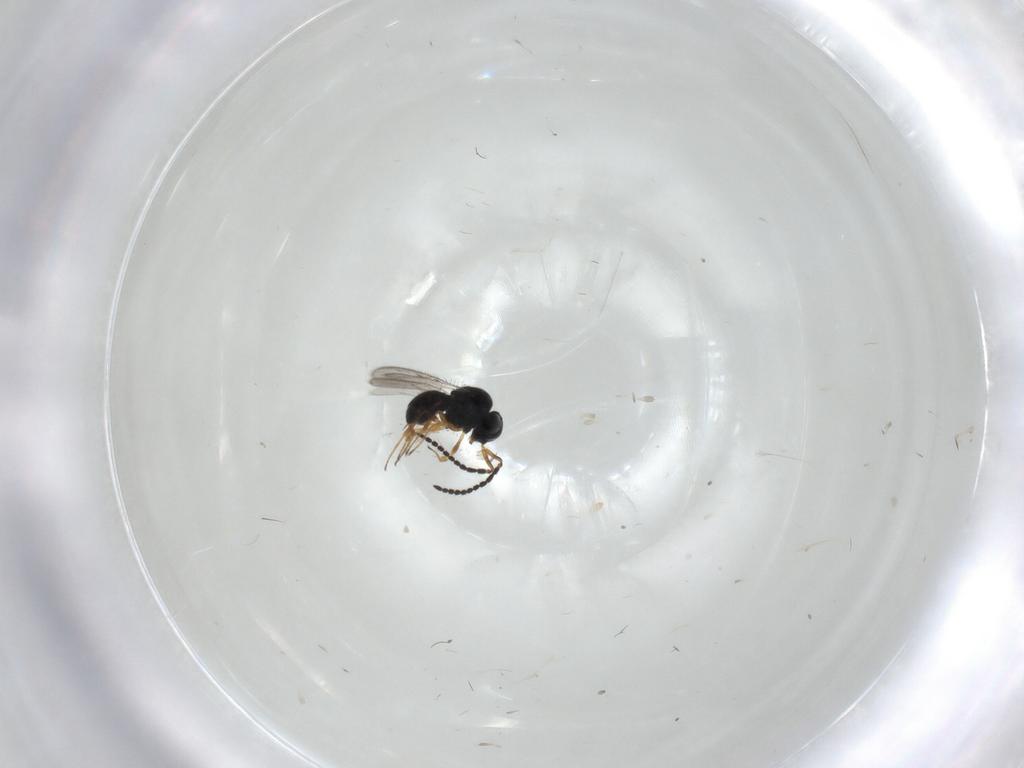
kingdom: Animalia
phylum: Arthropoda
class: Insecta
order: Hymenoptera
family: Scelionidae
